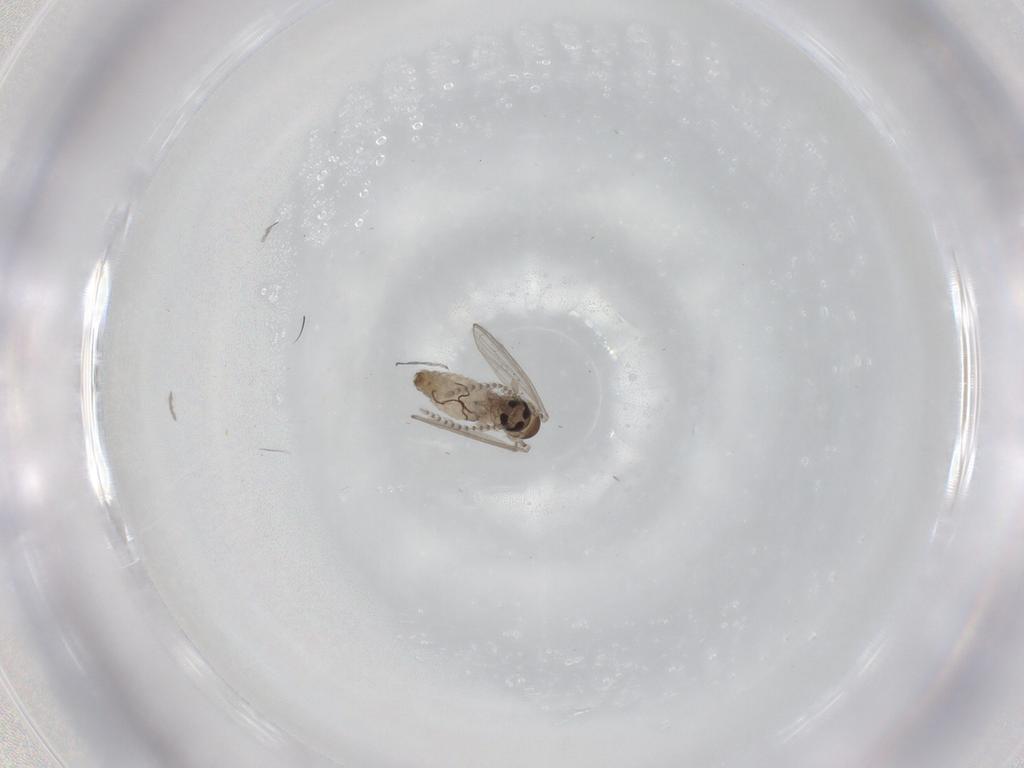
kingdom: Animalia
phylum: Arthropoda
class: Insecta
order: Diptera
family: Psychodidae
